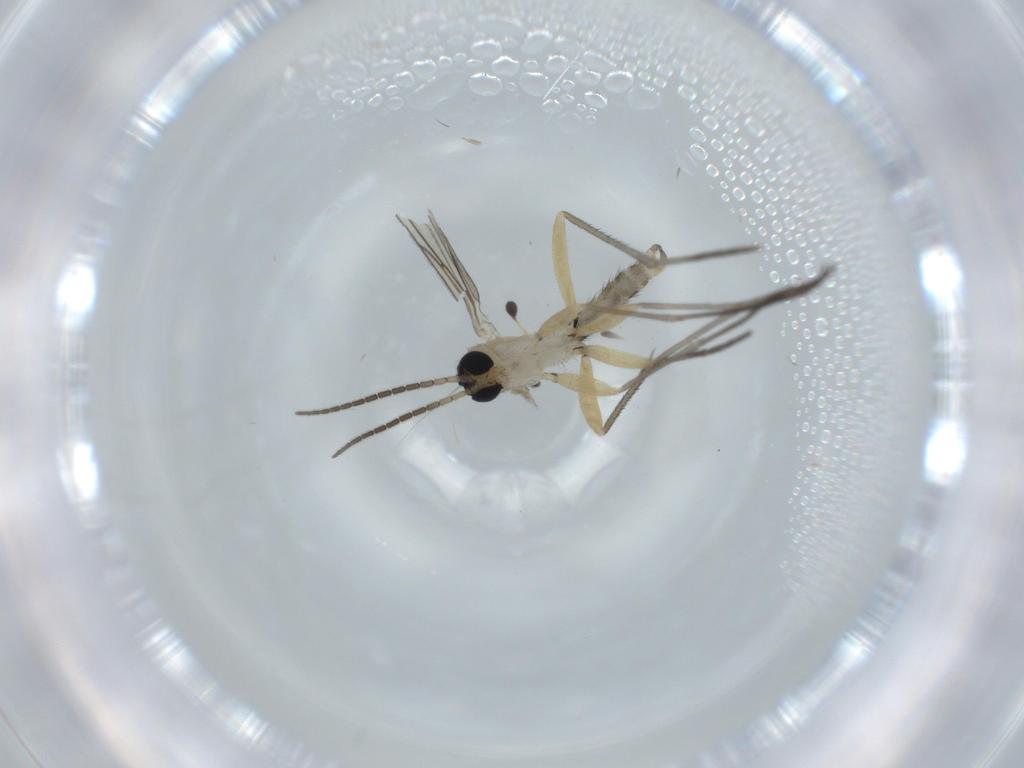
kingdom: Animalia
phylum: Arthropoda
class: Insecta
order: Diptera
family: Sciaridae
